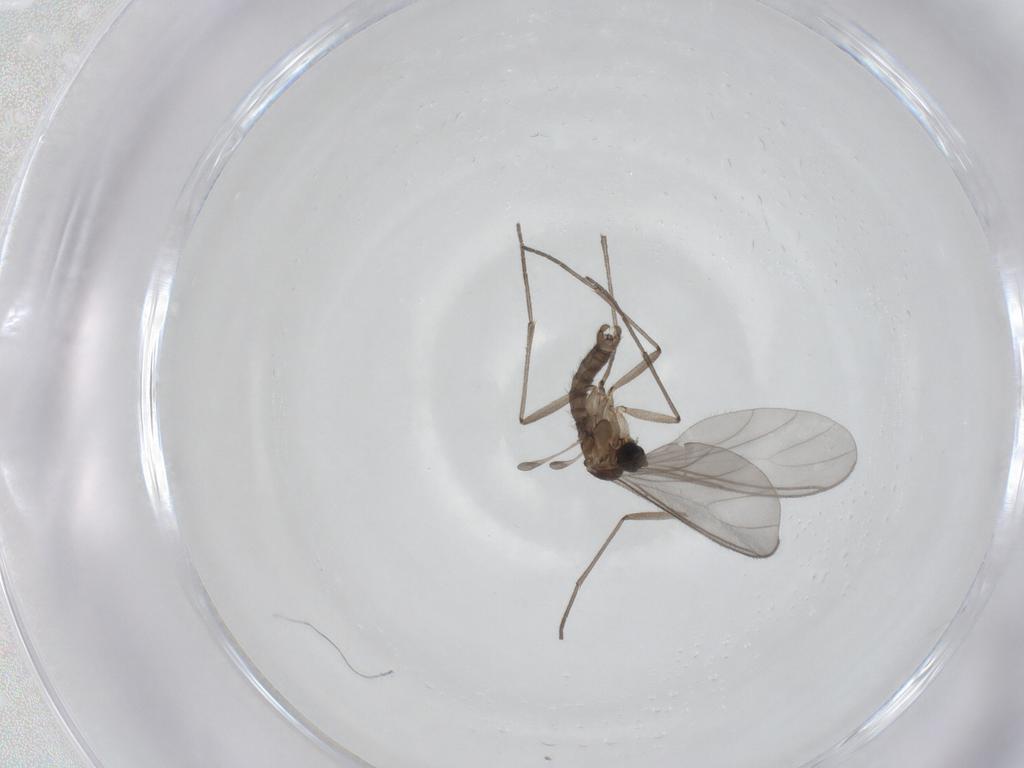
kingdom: Animalia
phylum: Arthropoda
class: Insecta
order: Diptera
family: Sciaridae
